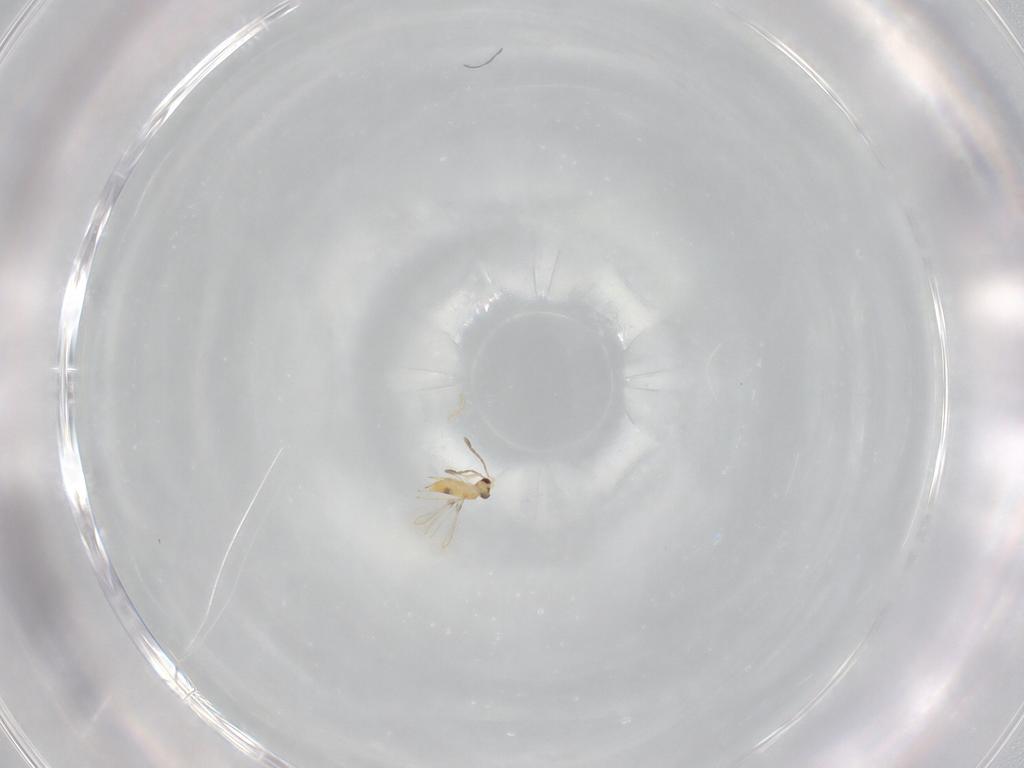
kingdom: Animalia
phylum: Arthropoda
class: Insecta
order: Hymenoptera
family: Mymaridae
